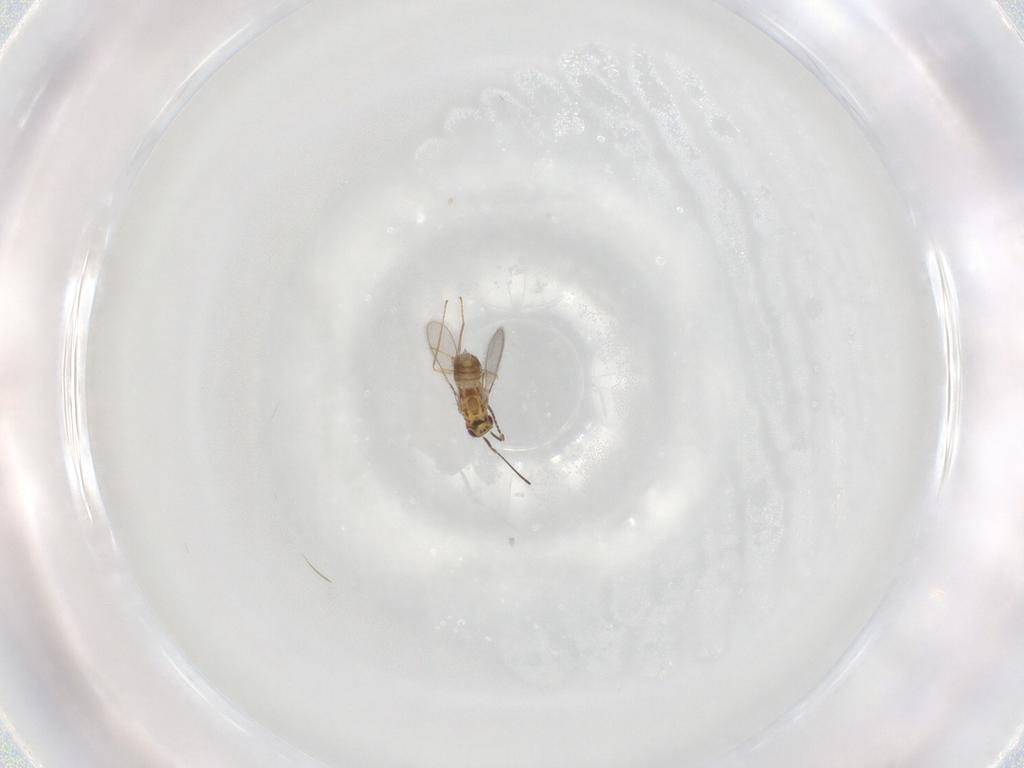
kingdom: Animalia
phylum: Arthropoda
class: Insecta
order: Hymenoptera
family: Mymaridae
